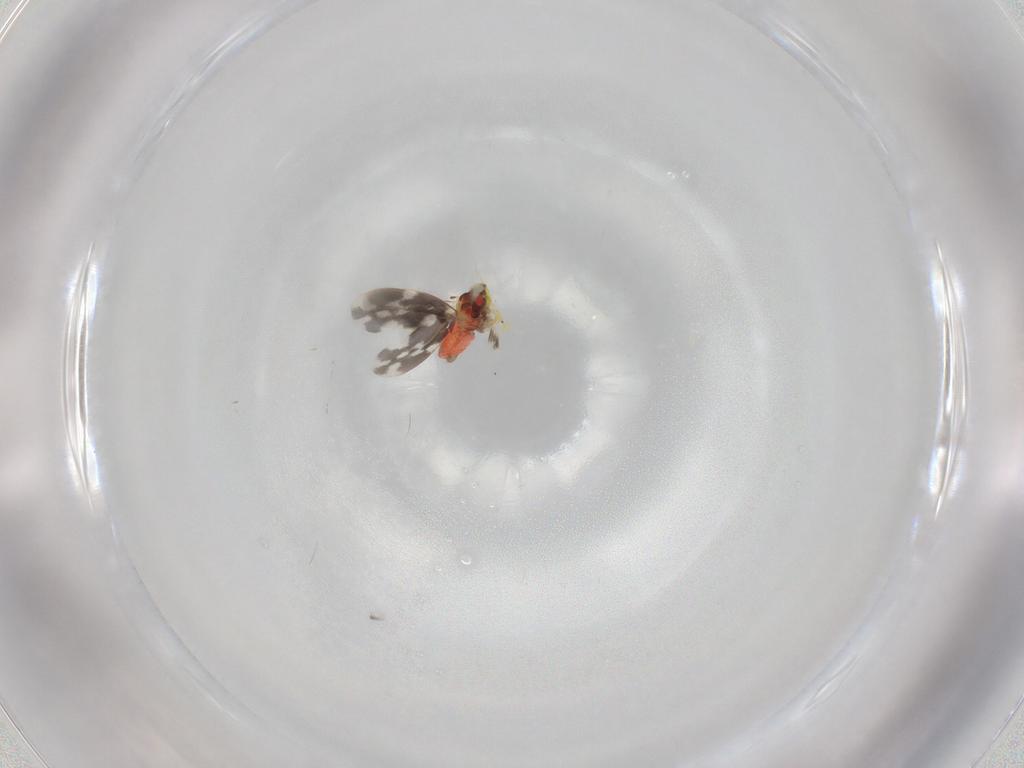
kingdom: Animalia
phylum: Arthropoda
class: Insecta
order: Hemiptera
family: Aleyrodidae
